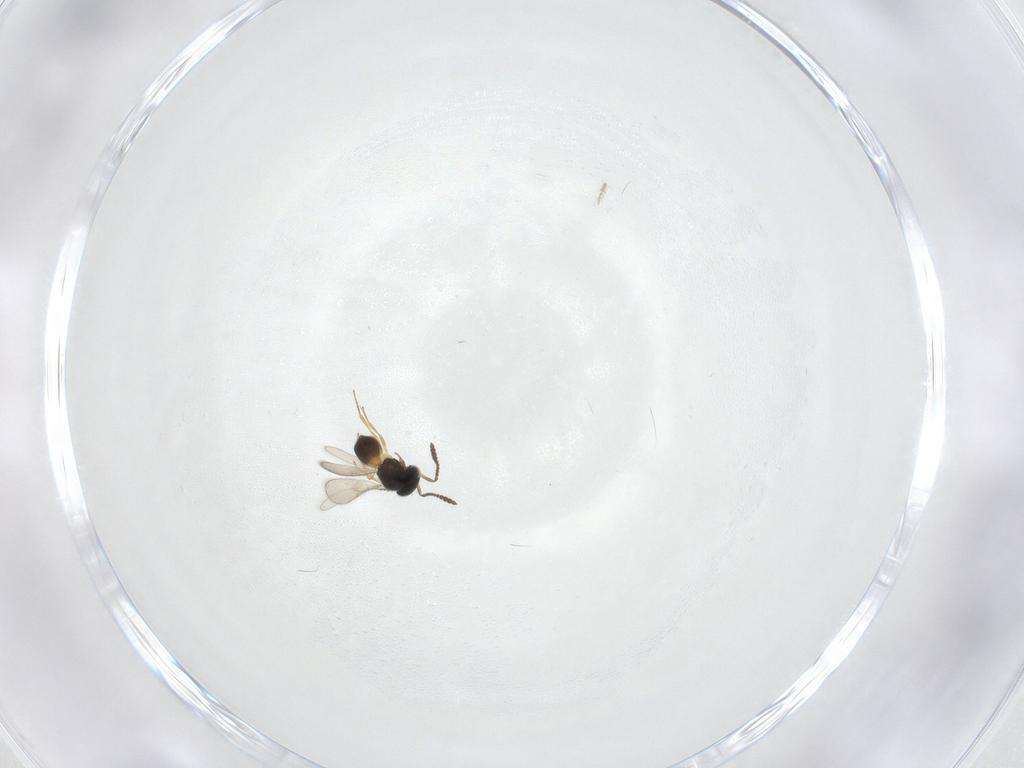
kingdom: Animalia
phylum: Arthropoda
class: Insecta
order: Hymenoptera
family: Scelionidae
